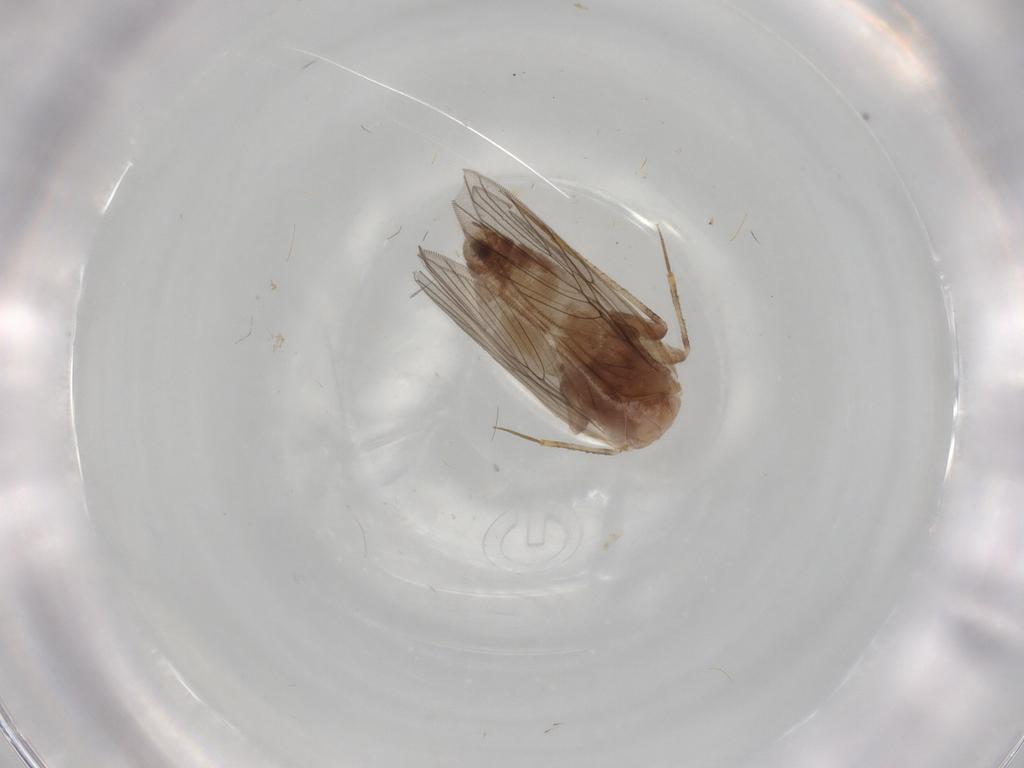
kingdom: Animalia
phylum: Arthropoda
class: Insecta
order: Psocodea
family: Lepidopsocidae
